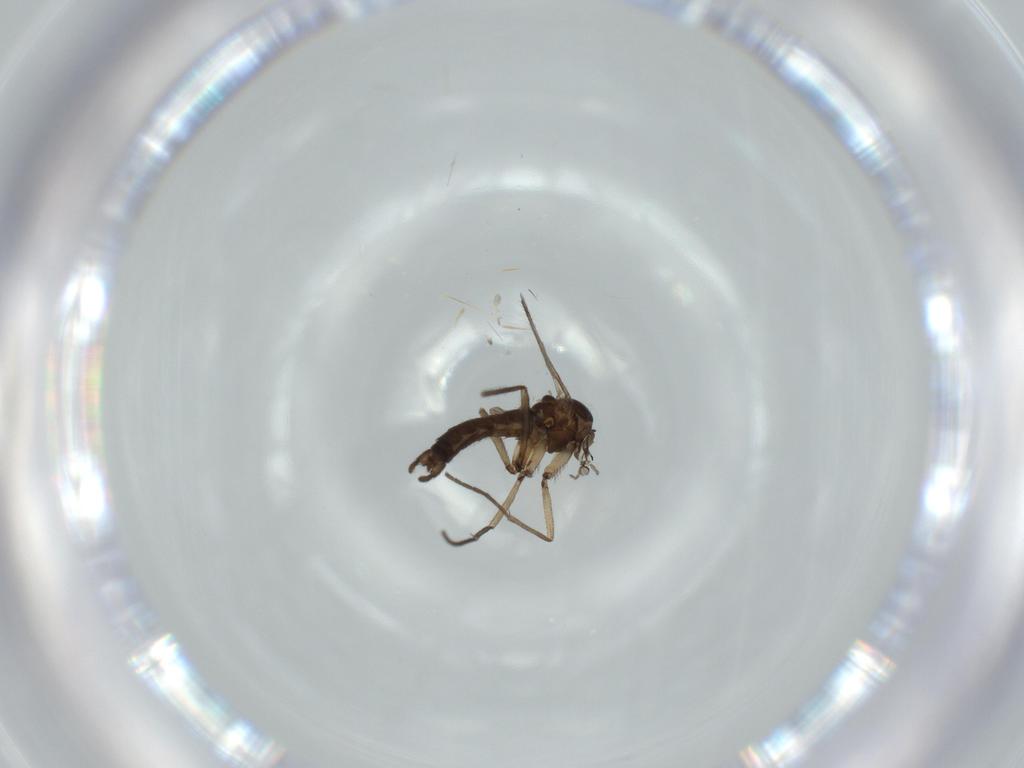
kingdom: Animalia
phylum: Arthropoda
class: Insecta
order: Diptera
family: Sciaridae
